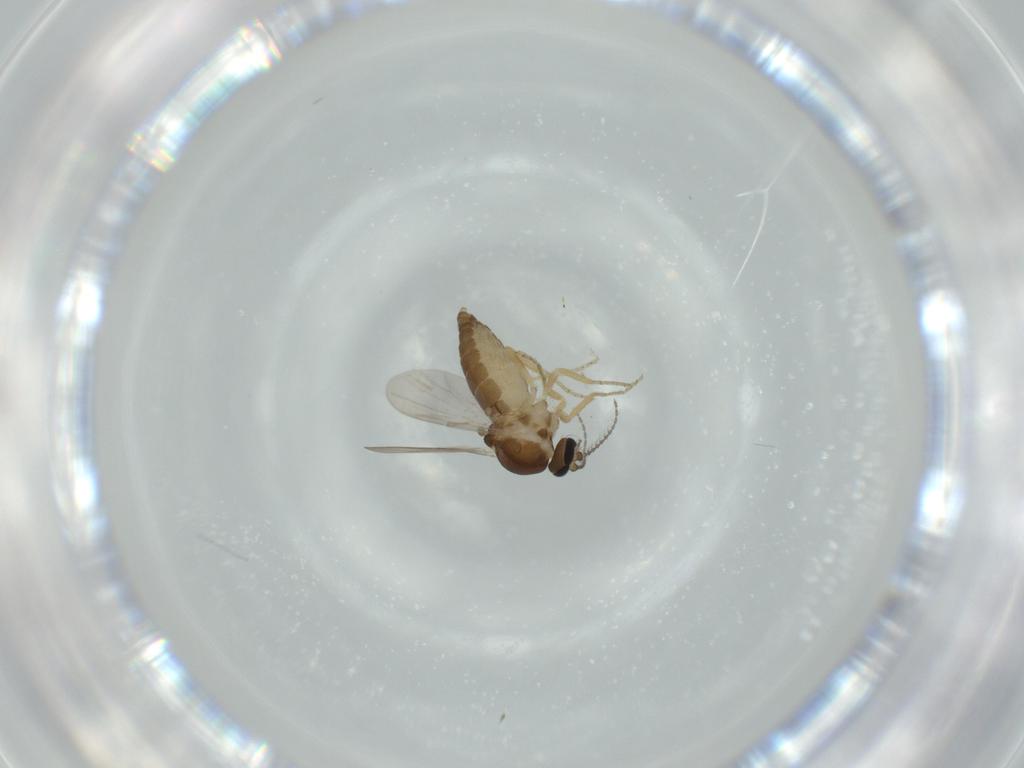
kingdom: Animalia
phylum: Arthropoda
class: Insecta
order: Diptera
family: Ceratopogonidae
